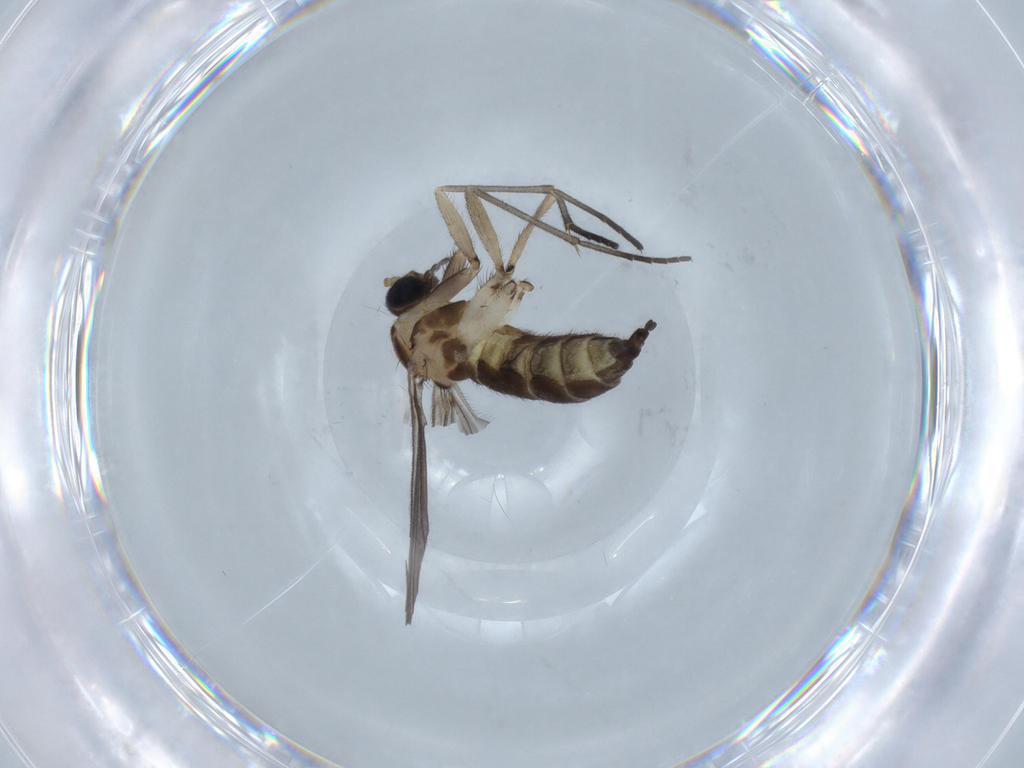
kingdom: Animalia
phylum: Arthropoda
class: Insecta
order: Diptera
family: Sciaridae
